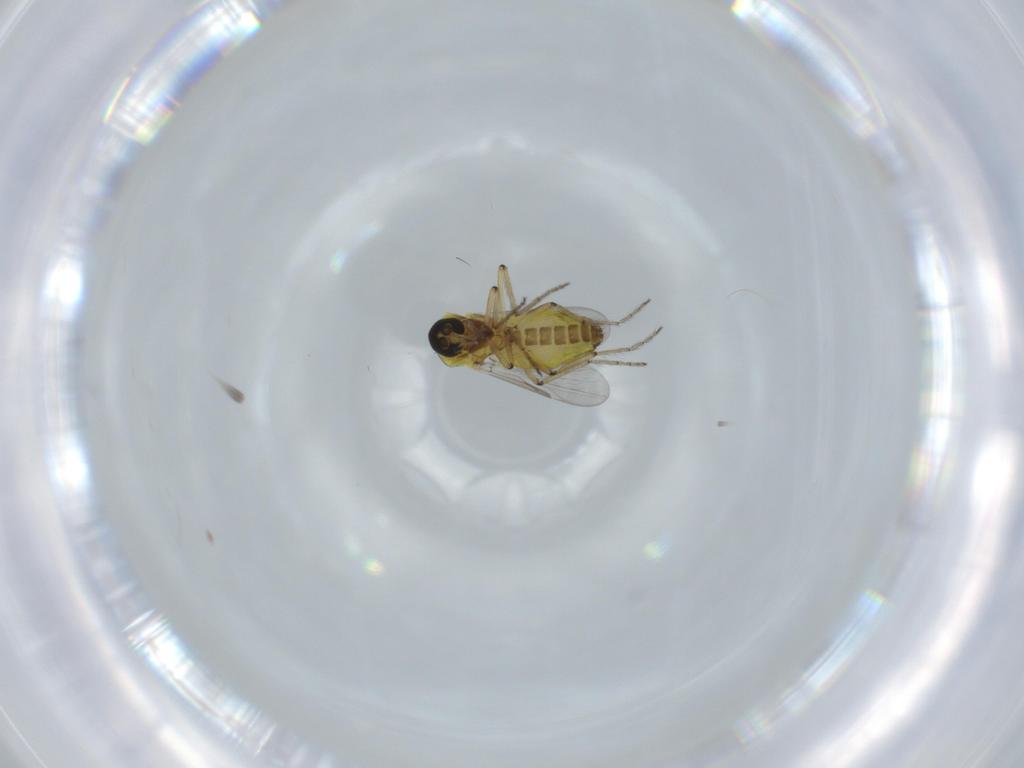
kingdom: Animalia
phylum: Arthropoda
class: Insecta
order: Diptera
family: Ceratopogonidae
